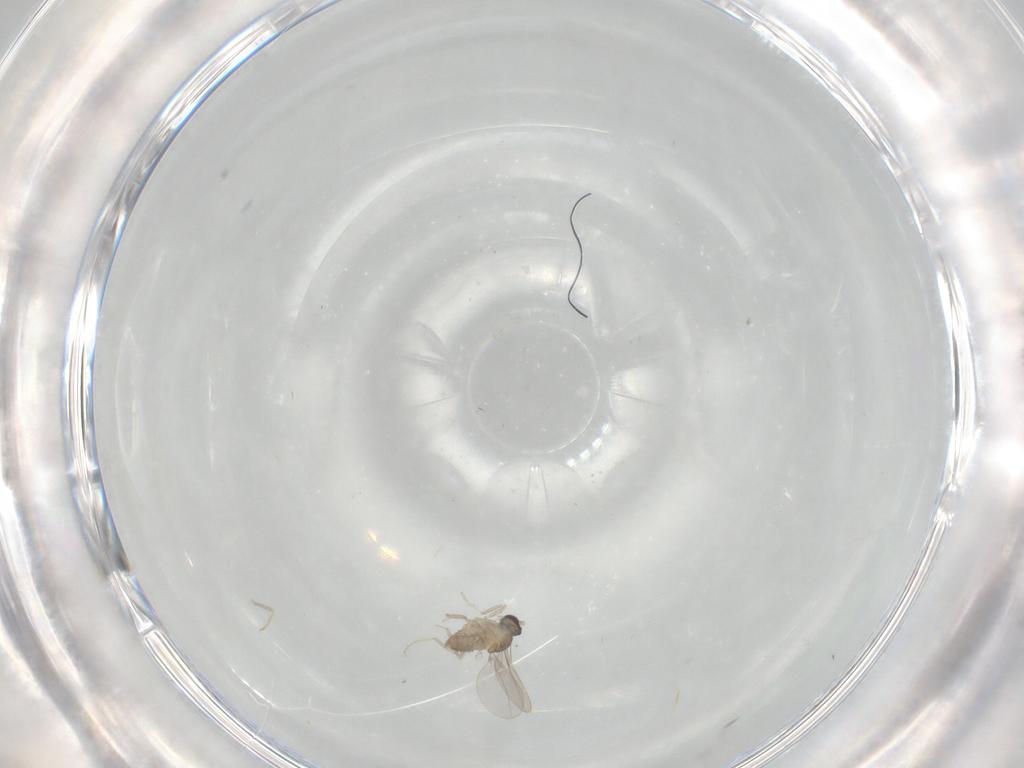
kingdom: Animalia
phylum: Arthropoda
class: Insecta
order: Diptera
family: Cecidomyiidae
